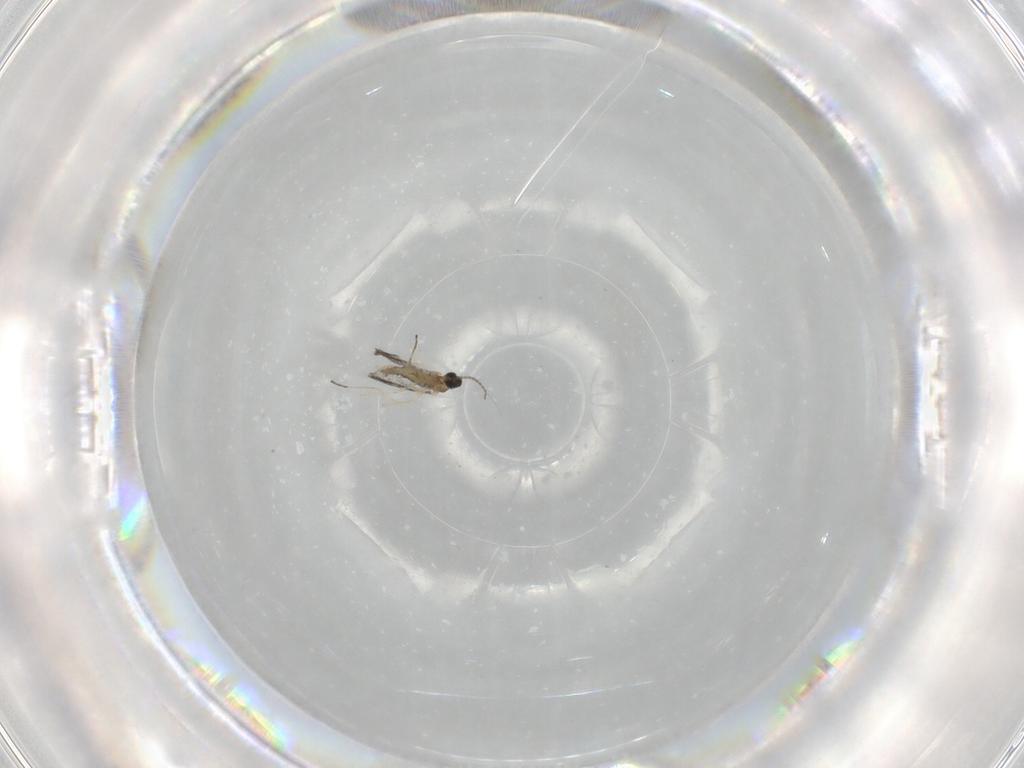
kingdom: Animalia
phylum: Arthropoda
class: Insecta
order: Diptera
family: Cecidomyiidae
